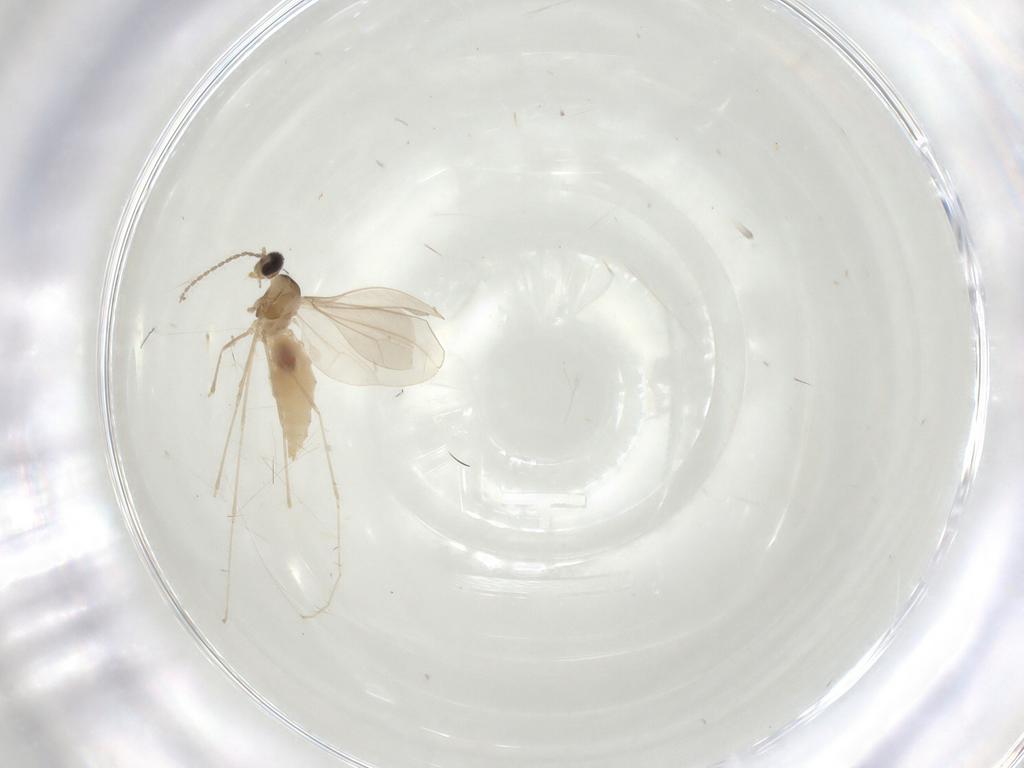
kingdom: Animalia
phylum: Arthropoda
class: Insecta
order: Diptera
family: Cecidomyiidae
